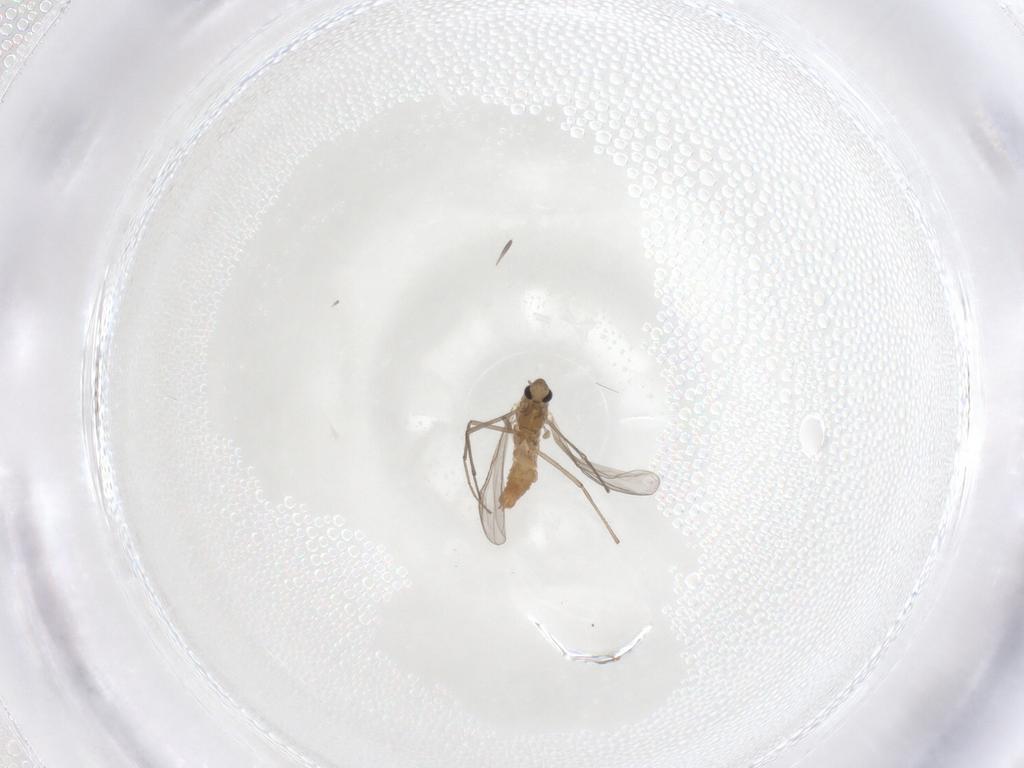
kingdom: Animalia
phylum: Arthropoda
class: Insecta
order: Diptera
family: Chironomidae
